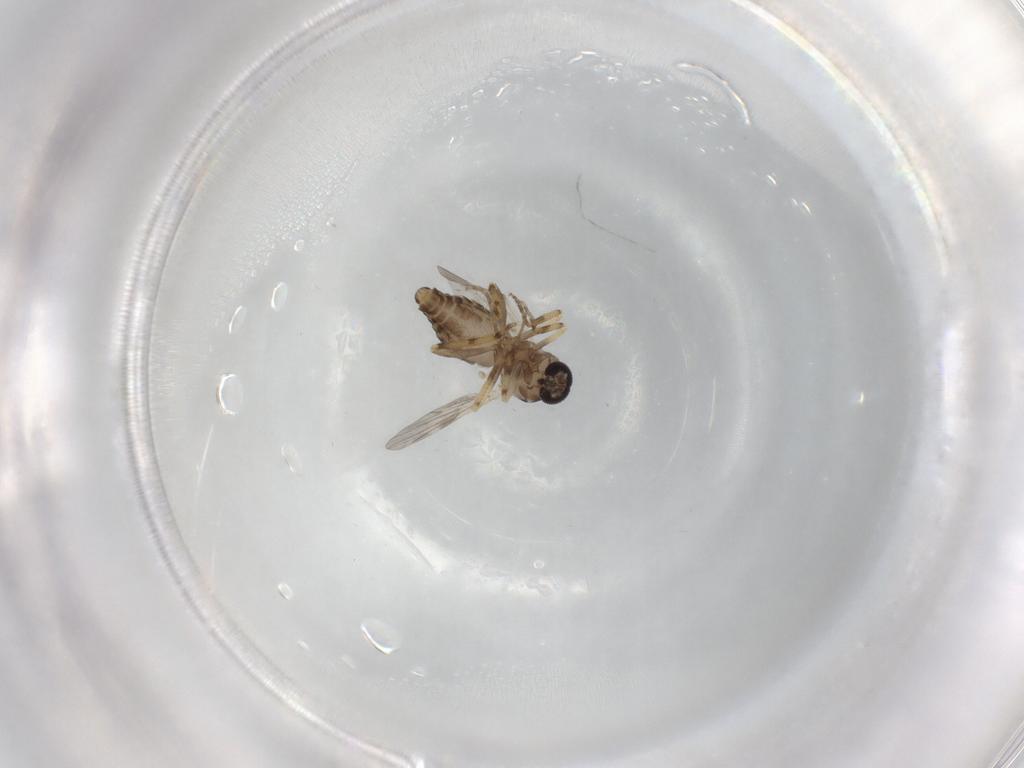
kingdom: Animalia
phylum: Arthropoda
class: Insecta
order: Diptera
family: Ceratopogonidae
